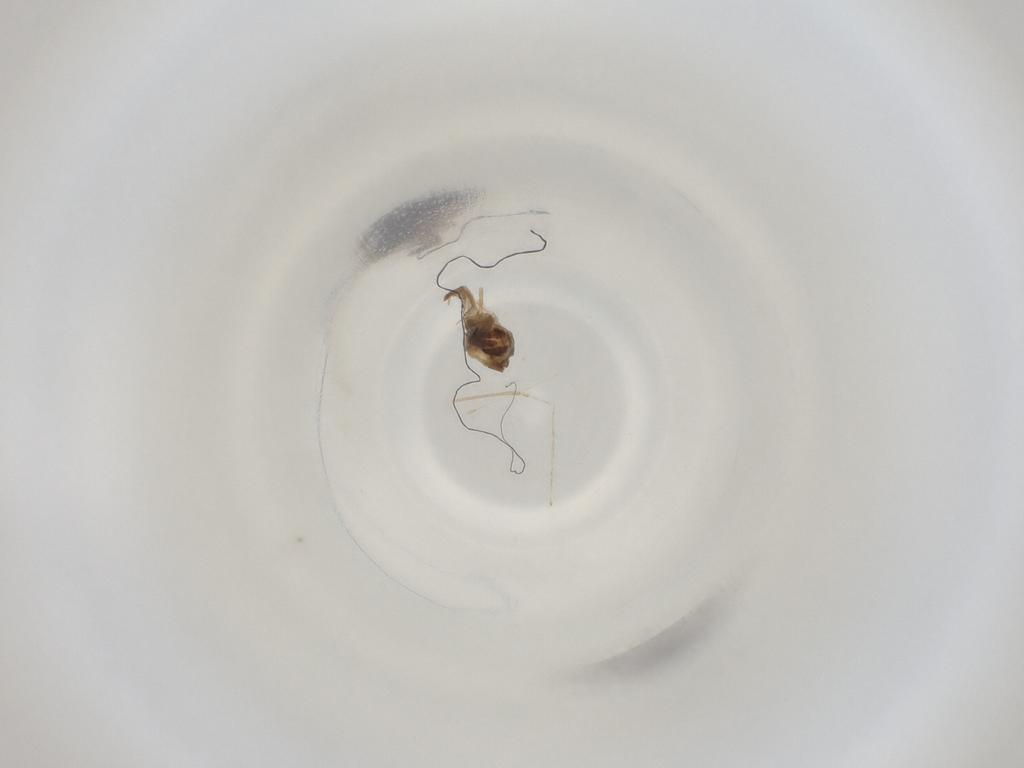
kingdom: Animalia
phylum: Arthropoda
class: Insecta
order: Diptera
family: Cecidomyiidae
